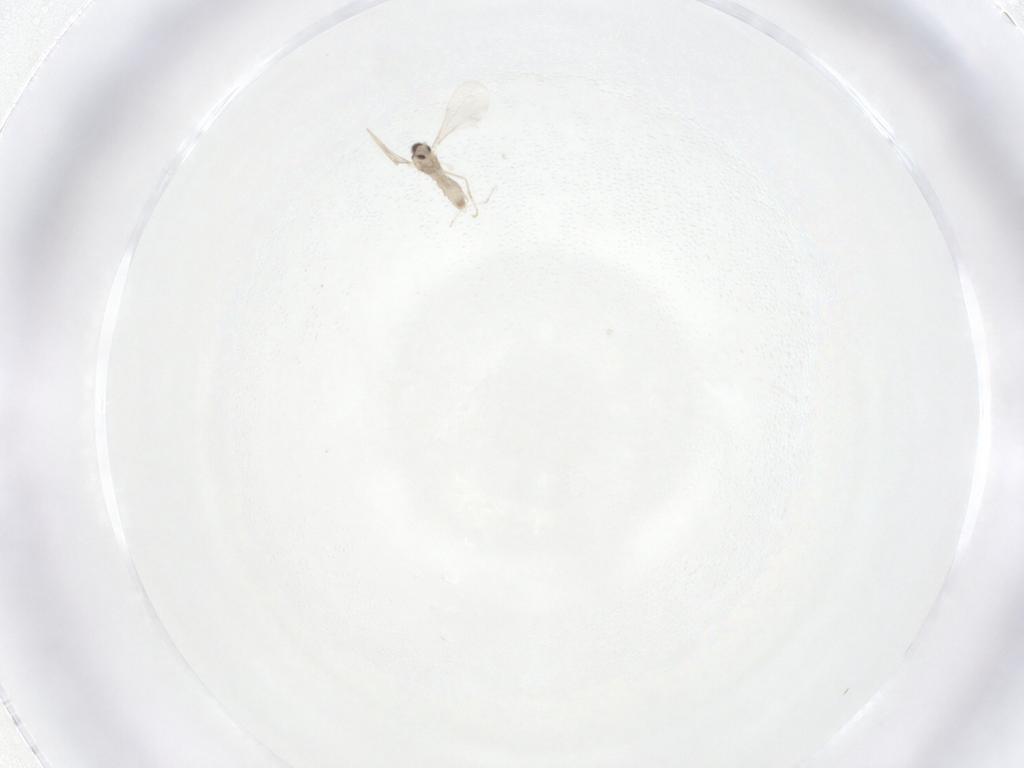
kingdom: Animalia
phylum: Arthropoda
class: Insecta
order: Diptera
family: Cecidomyiidae
